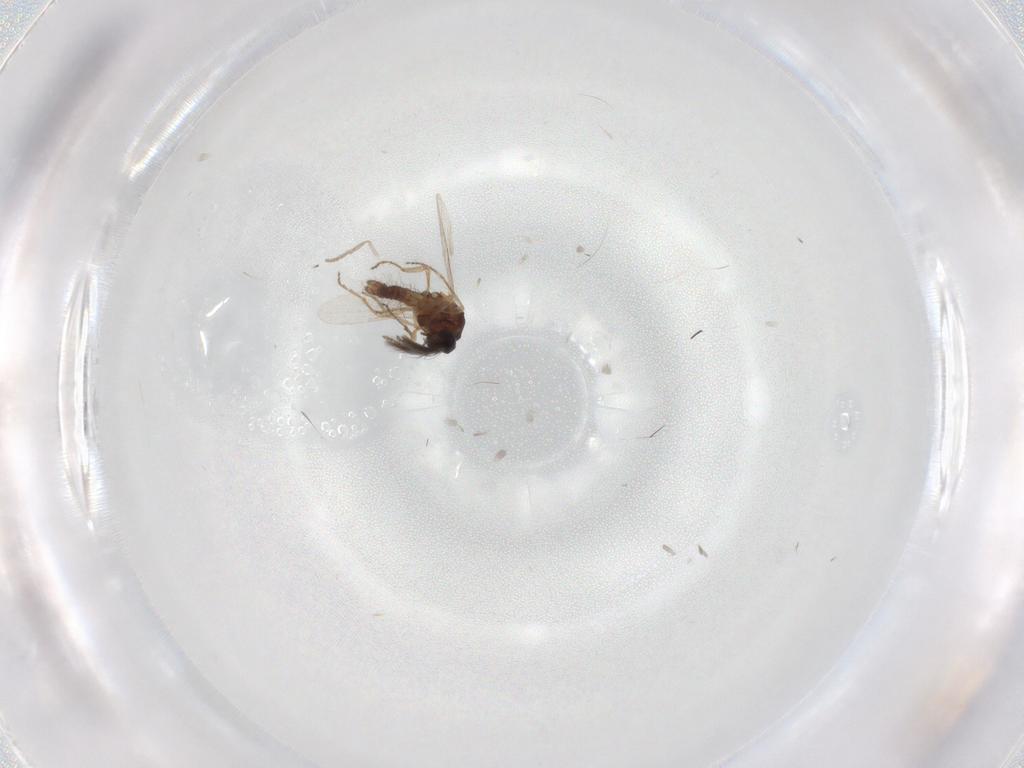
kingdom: Animalia
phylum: Arthropoda
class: Insecta
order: Diptera
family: Ceratopogonidae
